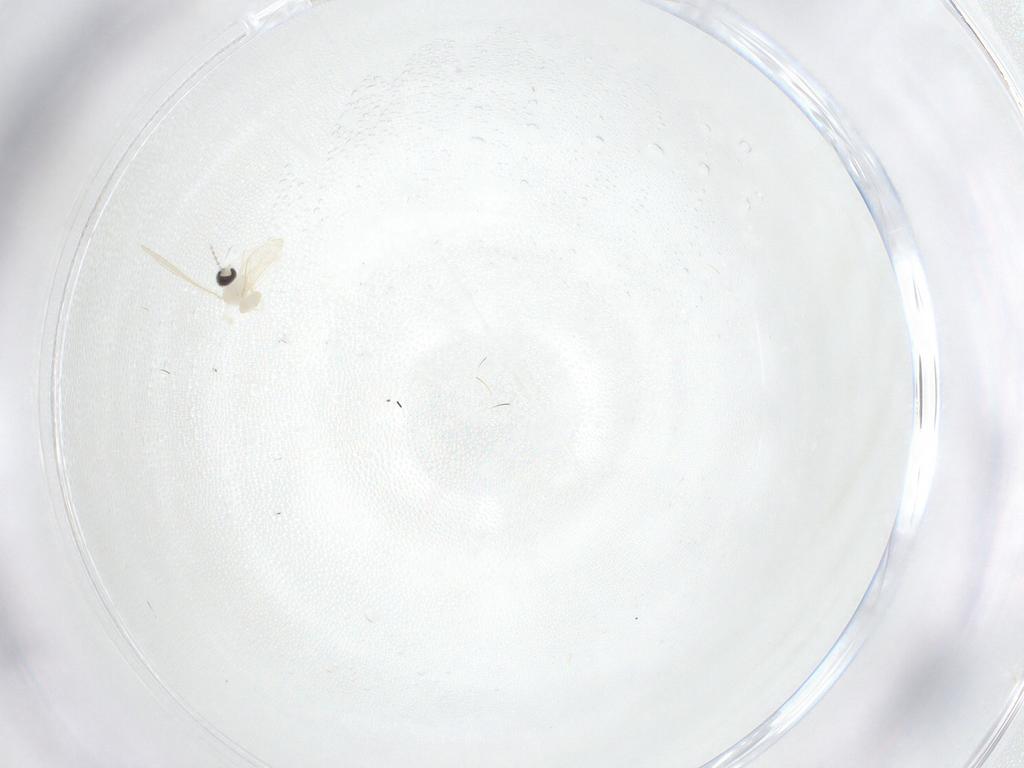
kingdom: Animalia
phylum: Arthropoda
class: Insecta
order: Diptera
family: Cecidomyiidae
